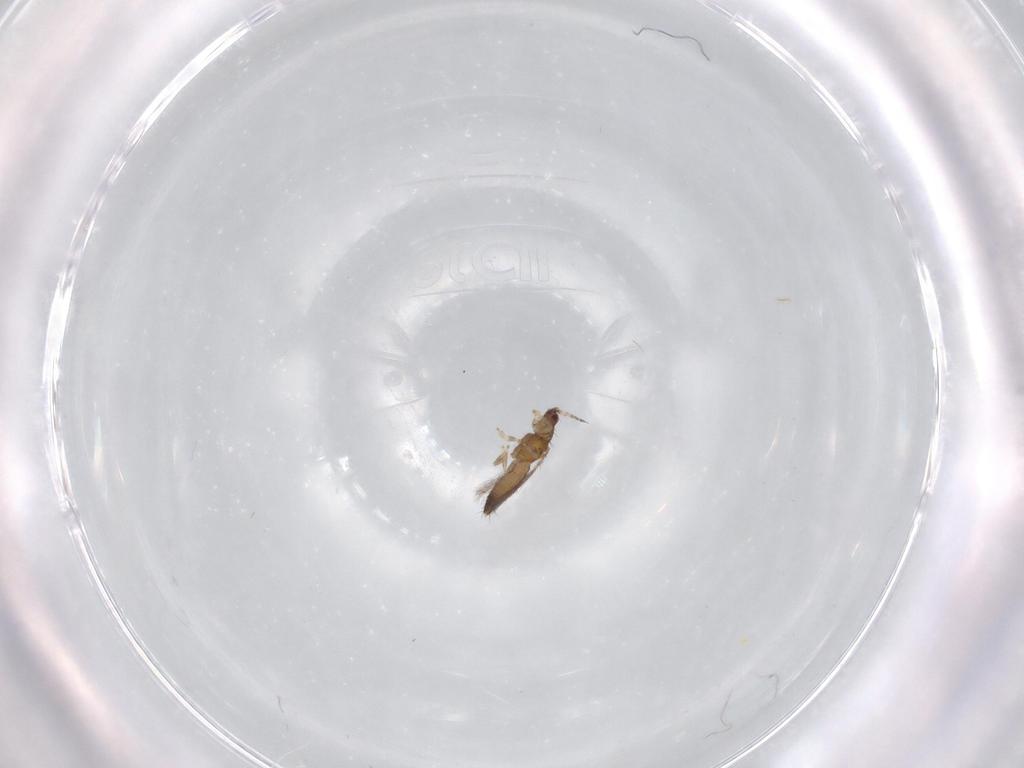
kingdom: Animalia
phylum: Arthropoda
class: Insecta
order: Thysanoptera
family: Thripidae
